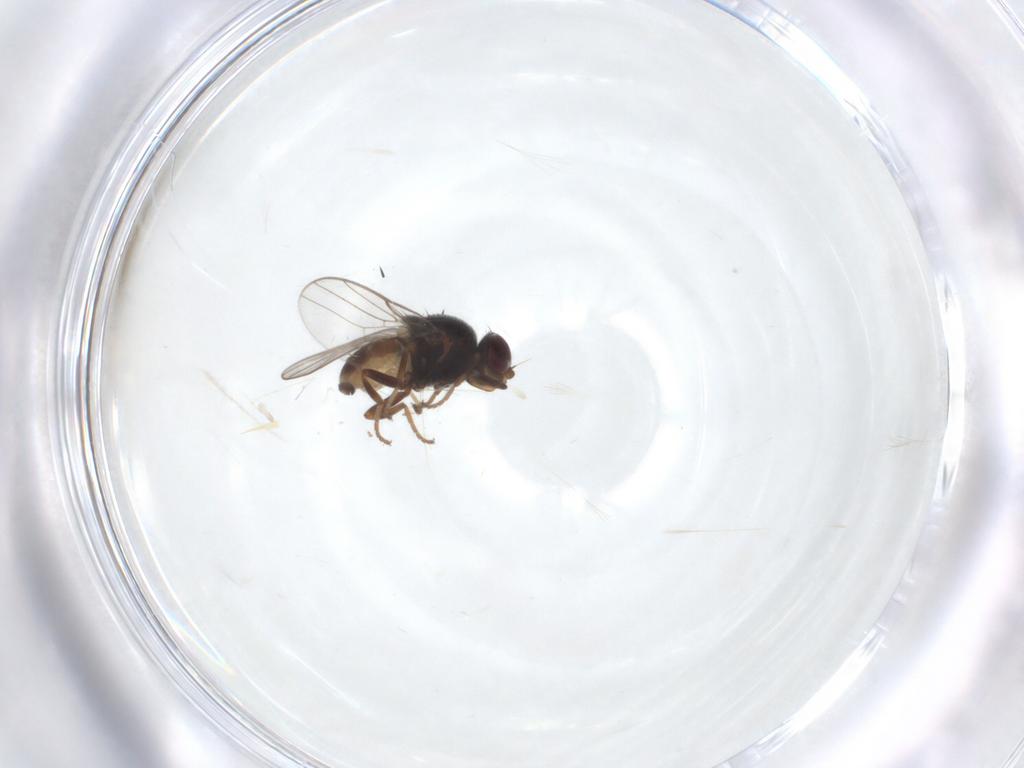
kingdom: Animalia
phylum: Arthropoda
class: Insecta
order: Diptera
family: Chloropidae
